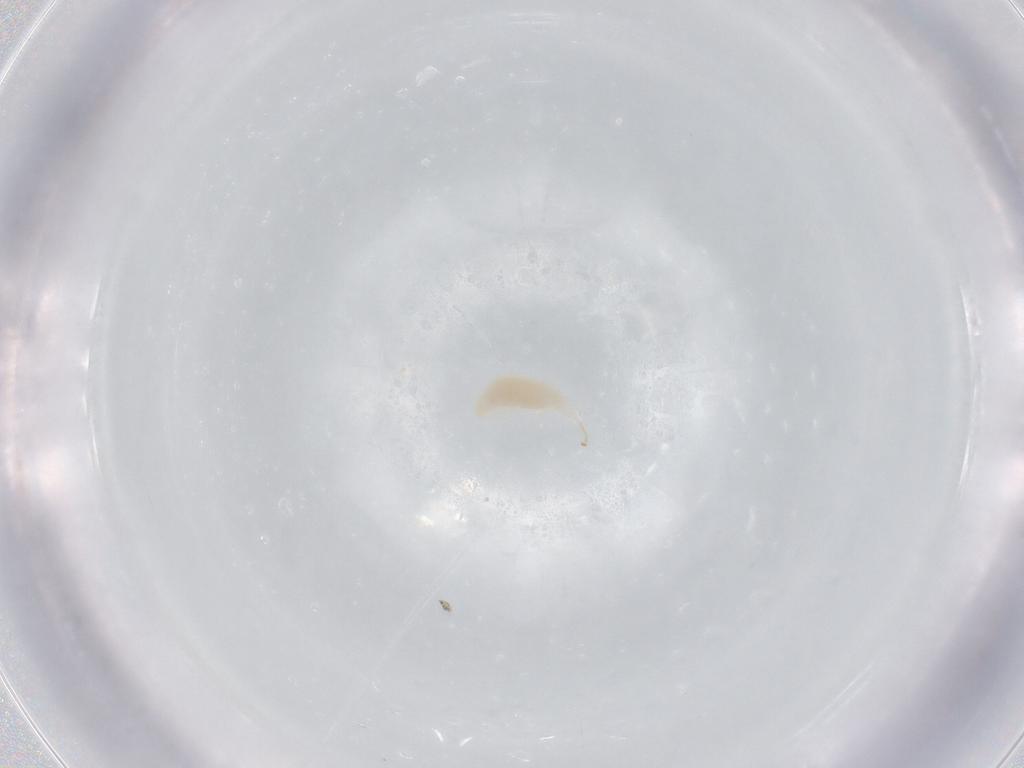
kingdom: Animalia
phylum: Arthropoda
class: Insecta
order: Hymenoptera
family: Ichneumonidae
